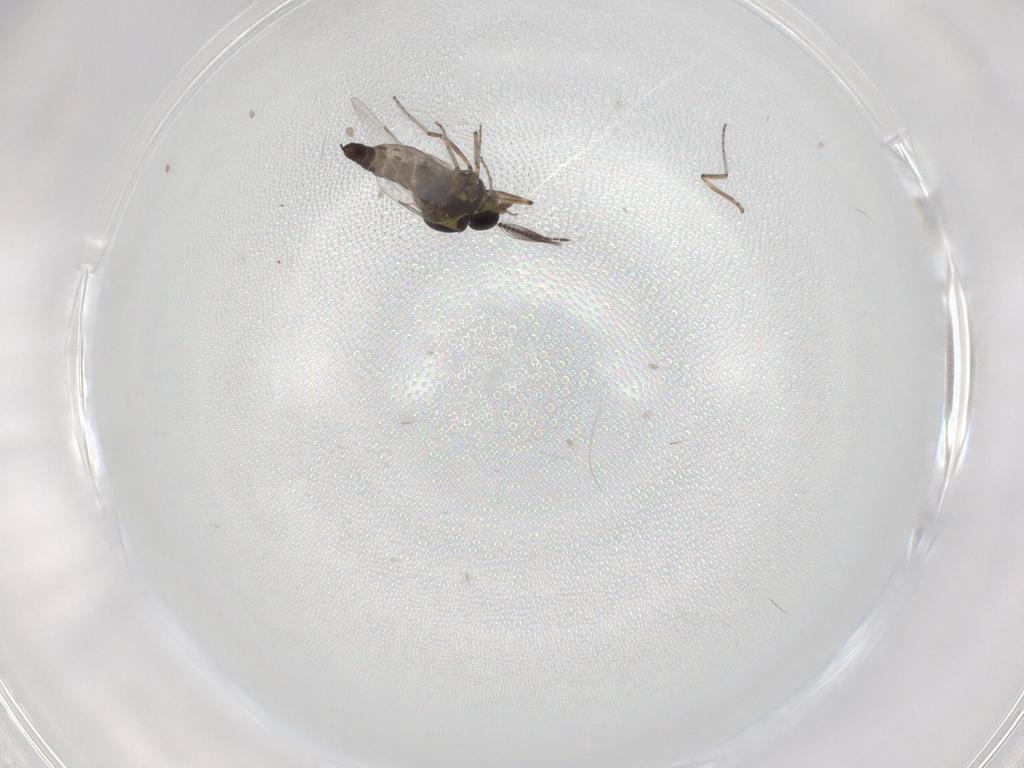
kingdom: Animalia
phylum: Arthropoda
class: Insecta
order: Diptera
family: Ceratopogonidae
